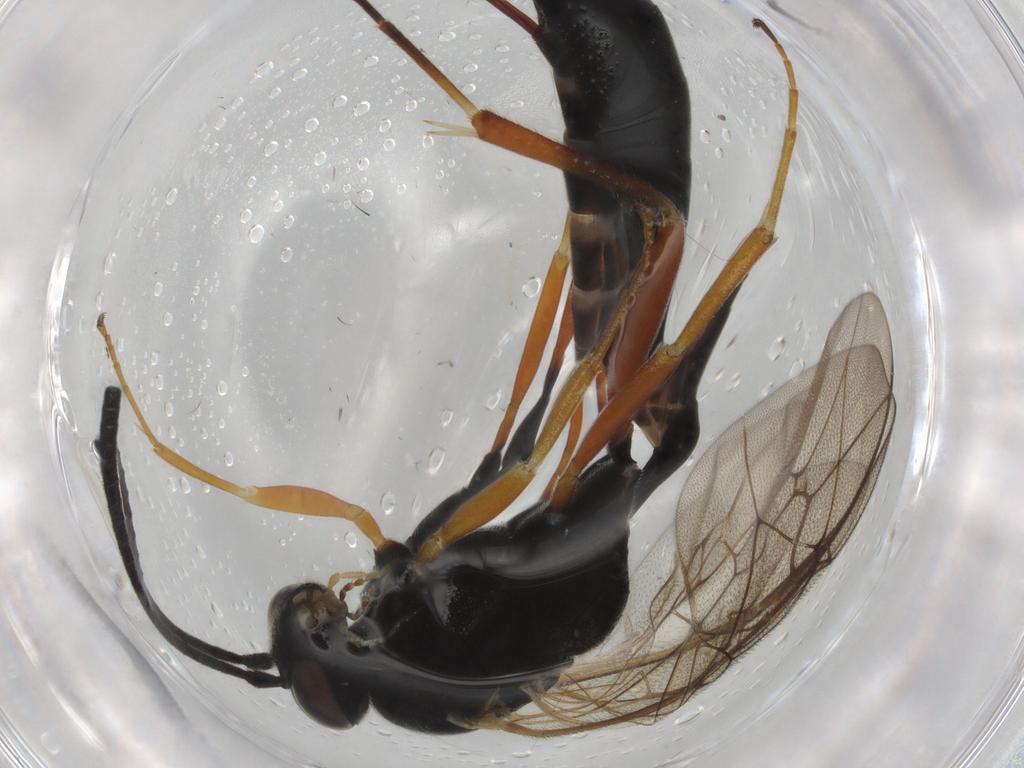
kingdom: Animalia
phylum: Arthropoda
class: Insecta
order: Hymenoptera
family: Ichneumonidae
